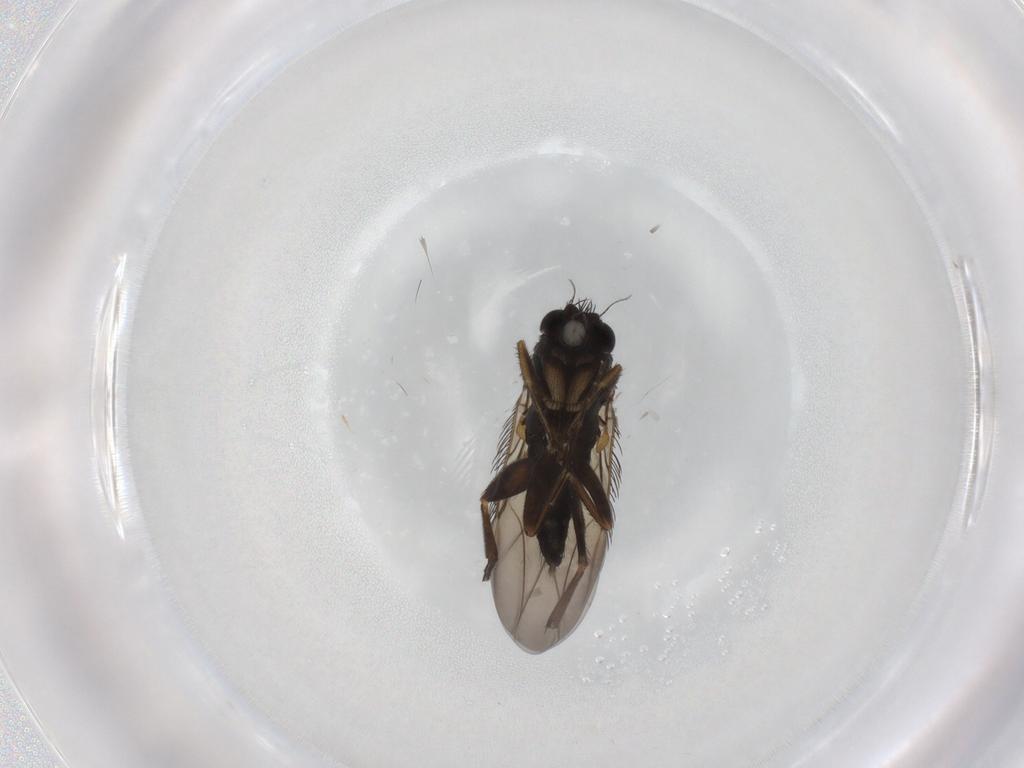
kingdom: Animalia
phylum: Arthropoda
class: Insecta
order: Diptera
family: Phoridae
